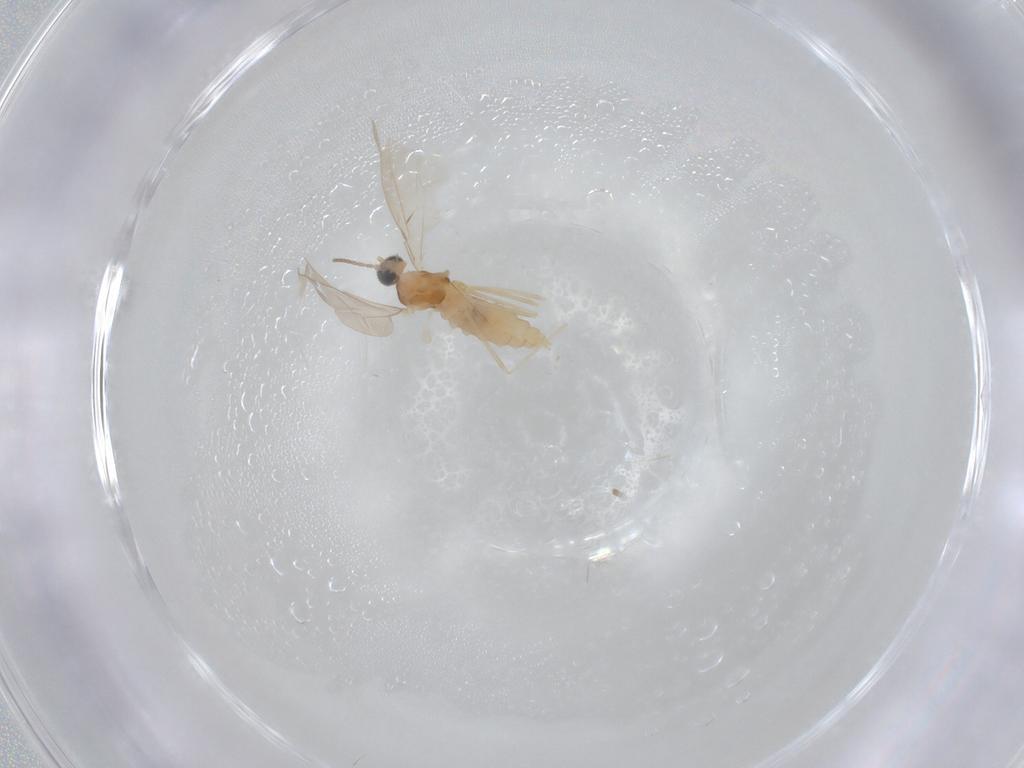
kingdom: Animalia
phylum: Arthropoda
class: Insecta
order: Diptera
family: Cecidomyiidae
